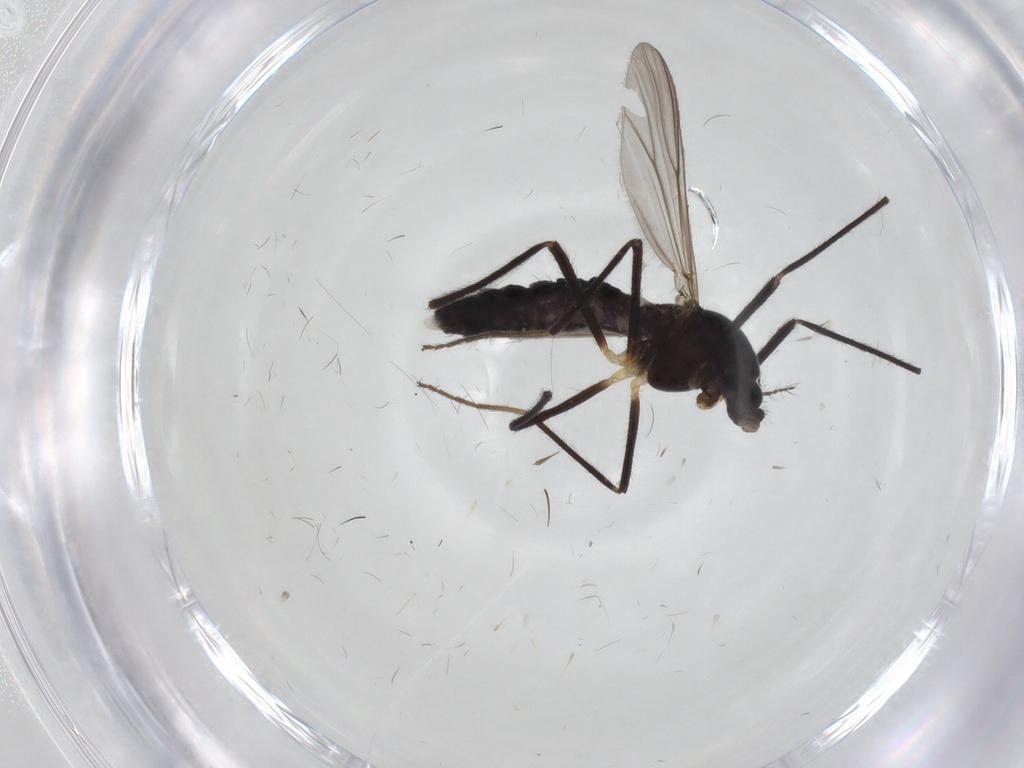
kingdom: Animalia
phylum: Arthropoda
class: Insecta
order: Diptera
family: Chironomidae
